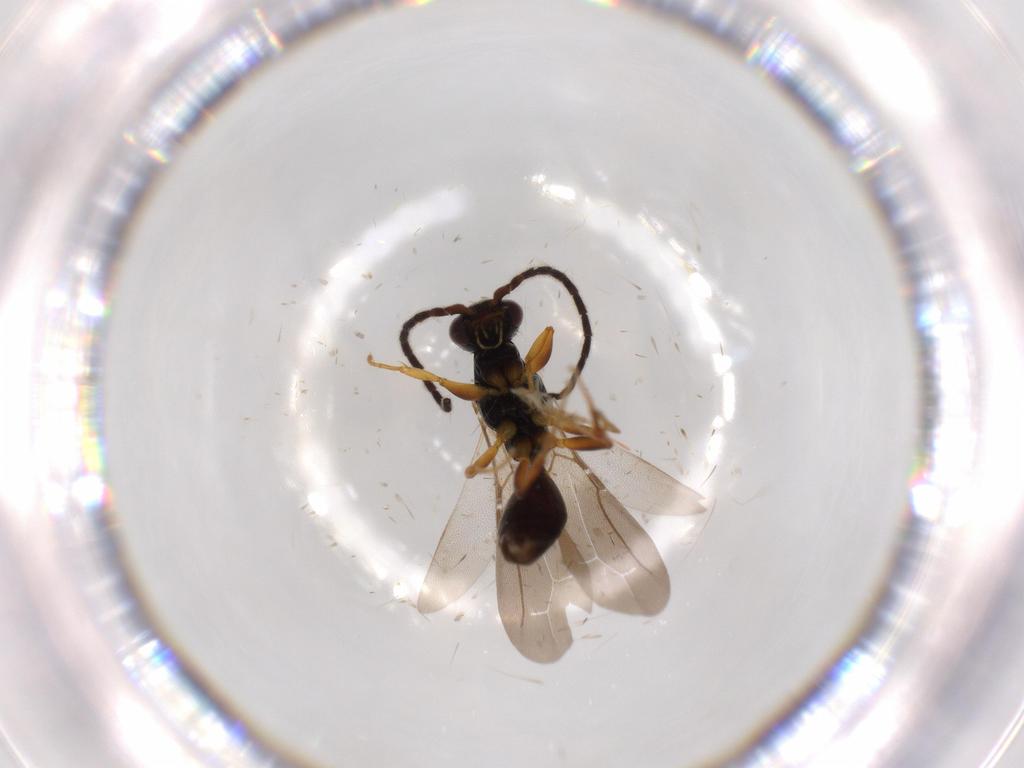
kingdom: Animalia
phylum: Arthropoda
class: Insecta
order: Hymenoptera
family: Bethylidae
